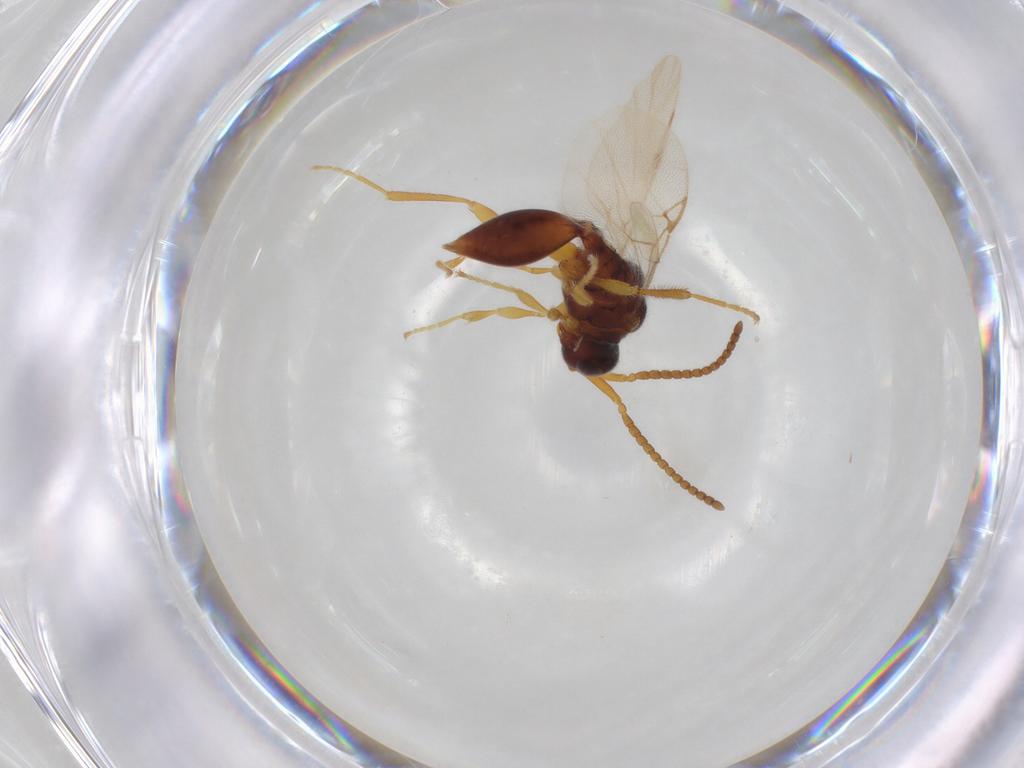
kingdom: Animalia
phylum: Arthropoda
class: Insecta
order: Hymenoptera
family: Diapriidae
